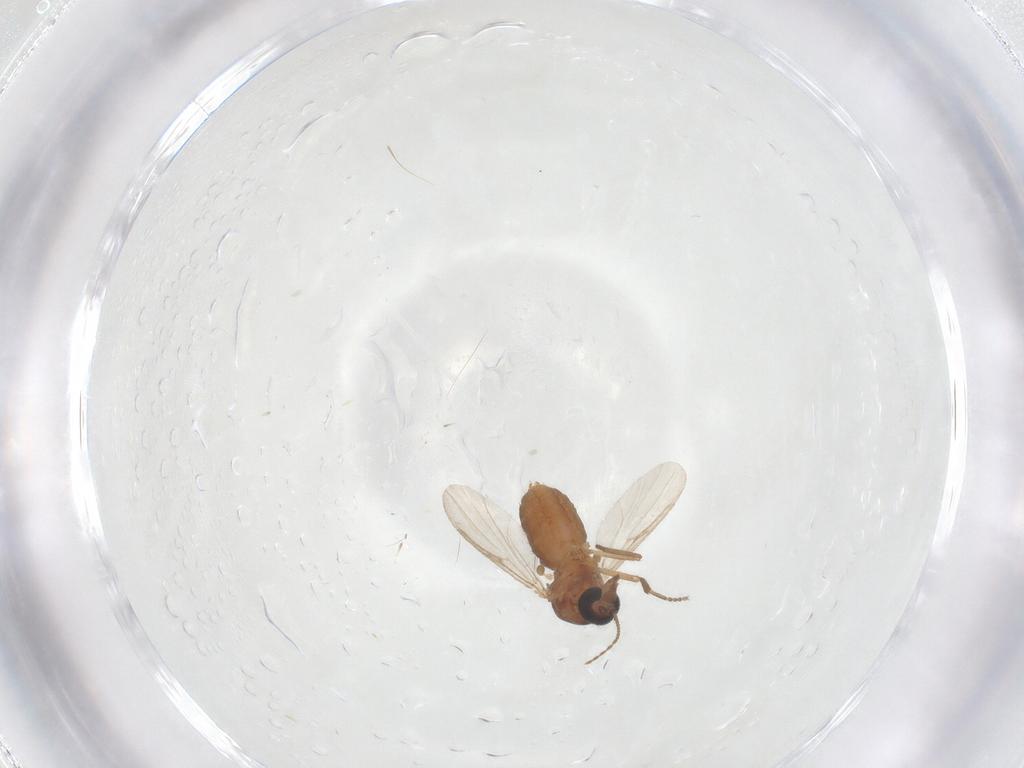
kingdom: Animalia
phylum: Arthropoda
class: Insecta
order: Diptera
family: Ceratopogonidae
